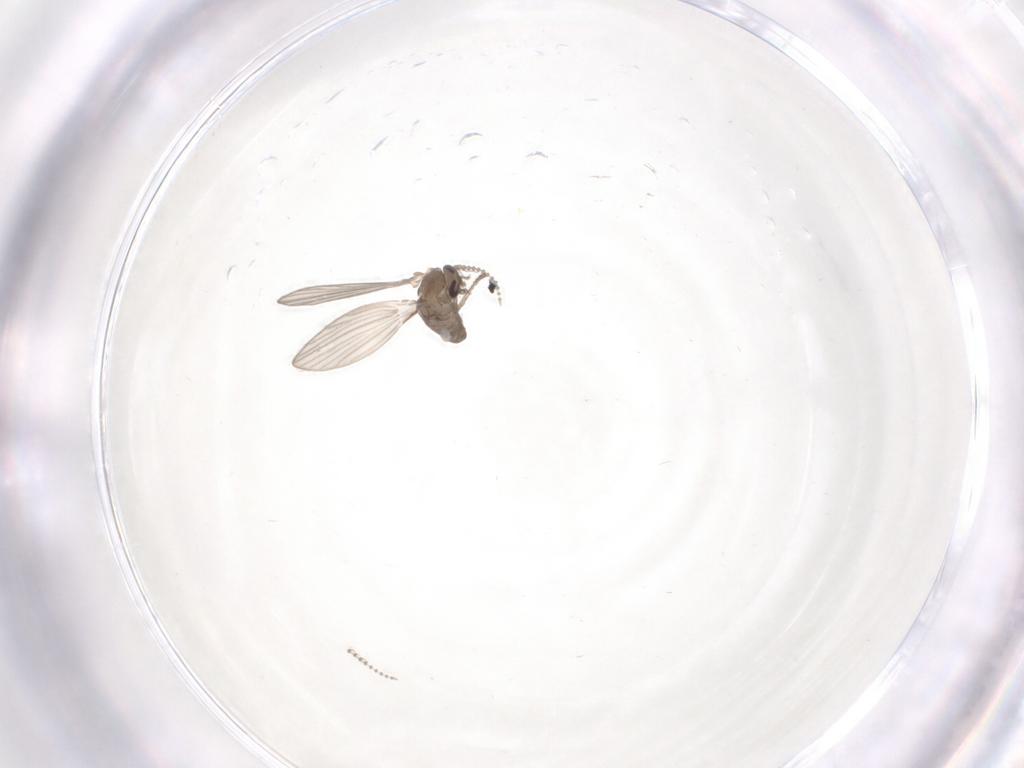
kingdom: Animalia
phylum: Arthropoda
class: Insecta
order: Diptera
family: Psychodidae
